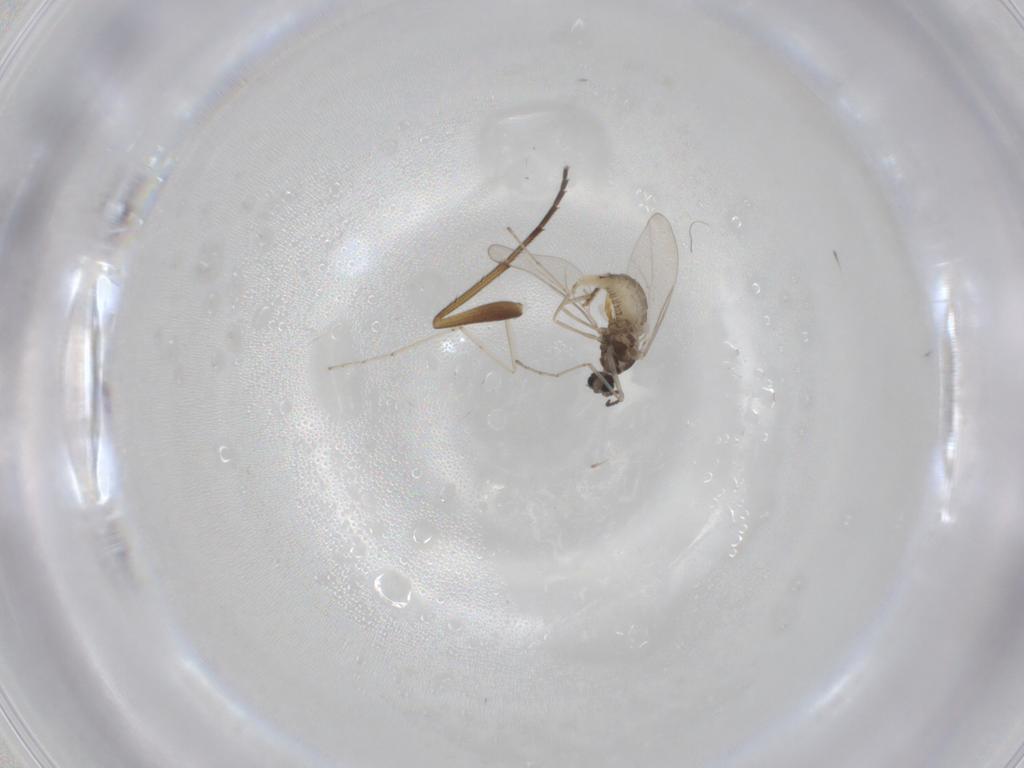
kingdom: Animalia
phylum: Arthropoda
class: Insecta
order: Diptera
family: Cecidomyiidae
